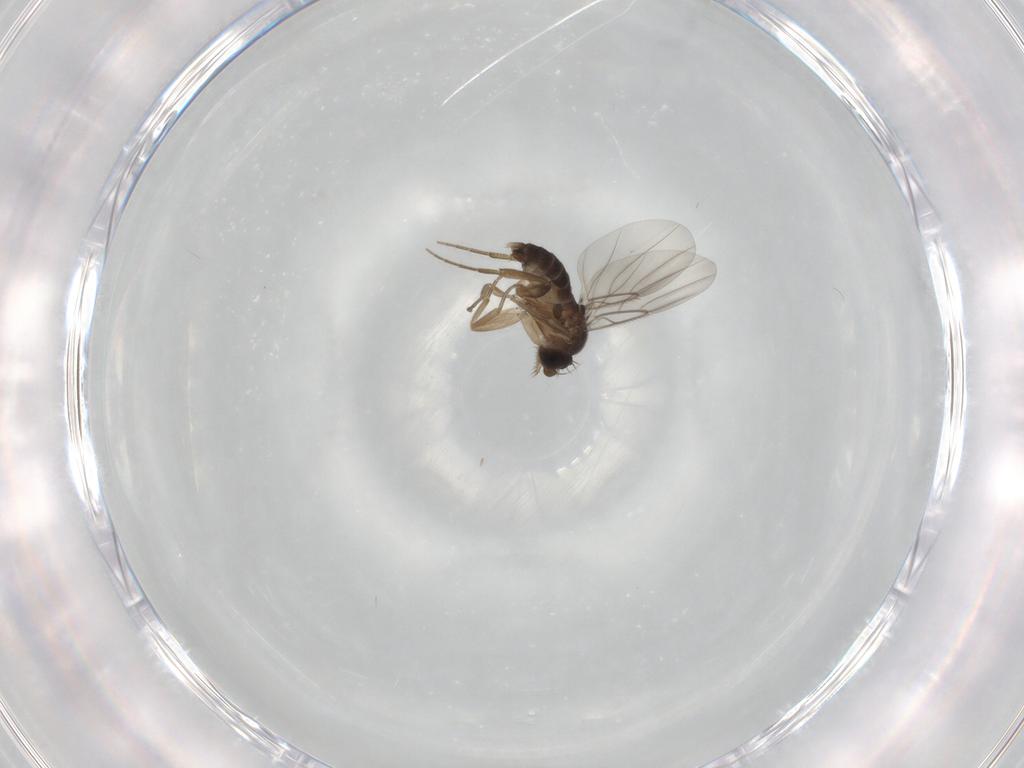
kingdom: Animalia
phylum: Arthropoda
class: Insecta
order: Diptera
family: Phoridae
